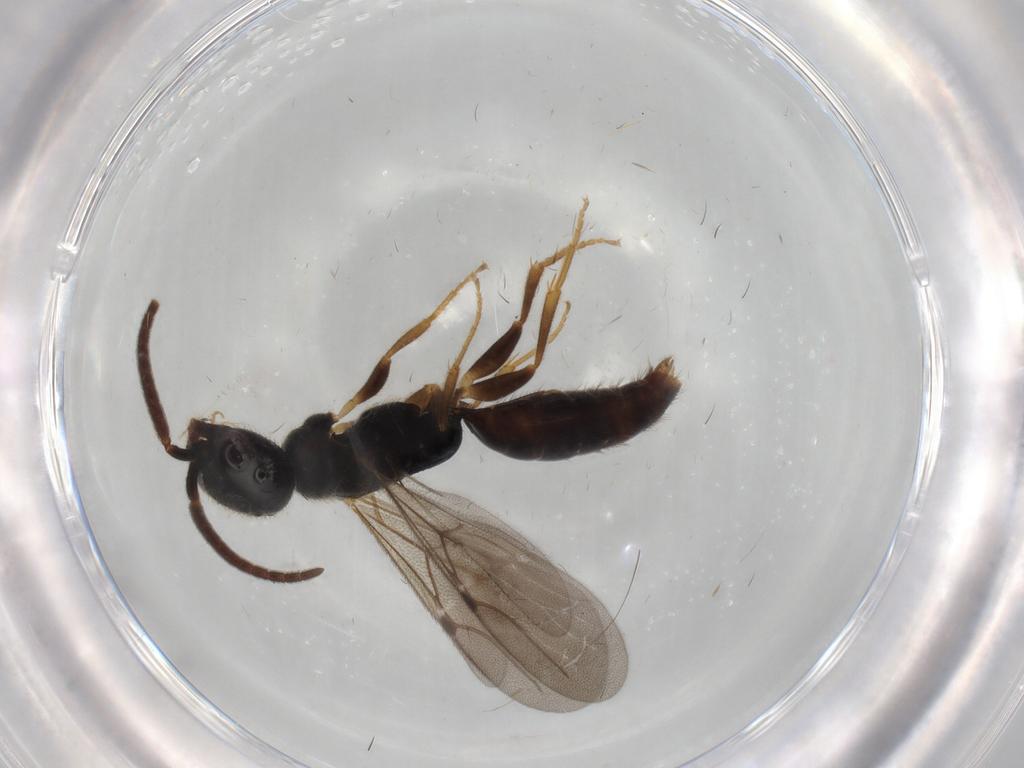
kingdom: Animalia
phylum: Arthropoda
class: Insecta
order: Hymenoptera
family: Bethylidae
